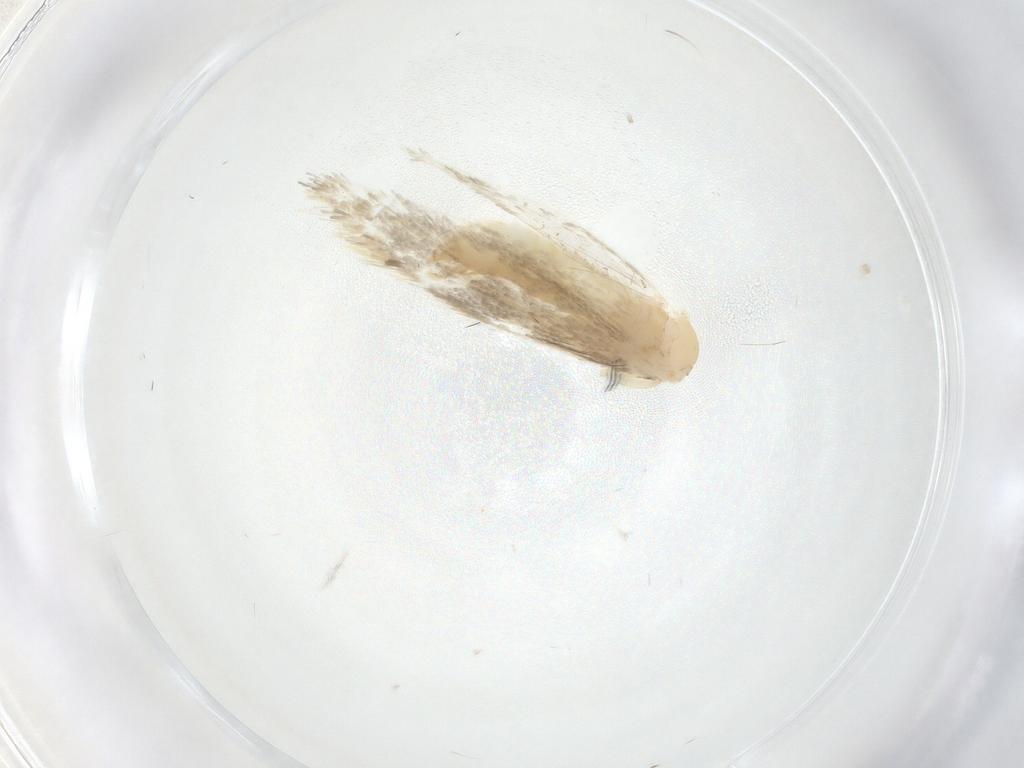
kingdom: Animalia
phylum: Arthropoda
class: Insecta
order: Lepidoptera
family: Tineidae
